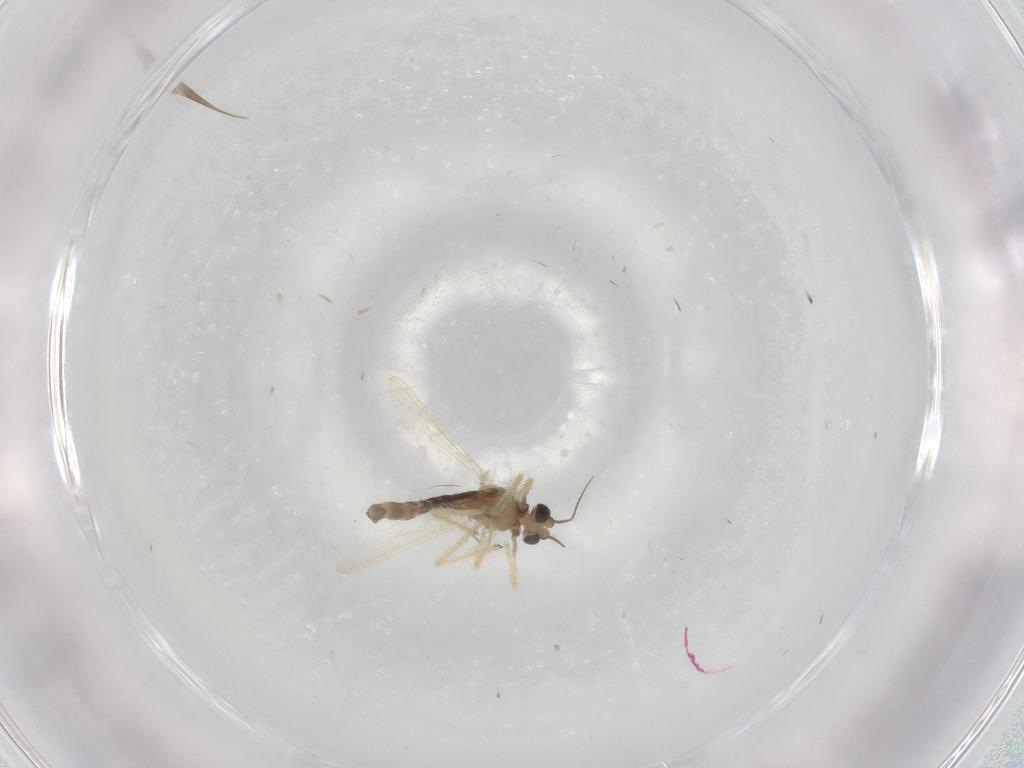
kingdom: Animalia
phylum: Arthropoda
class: Insecta
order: Diptera
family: Chironomidae
